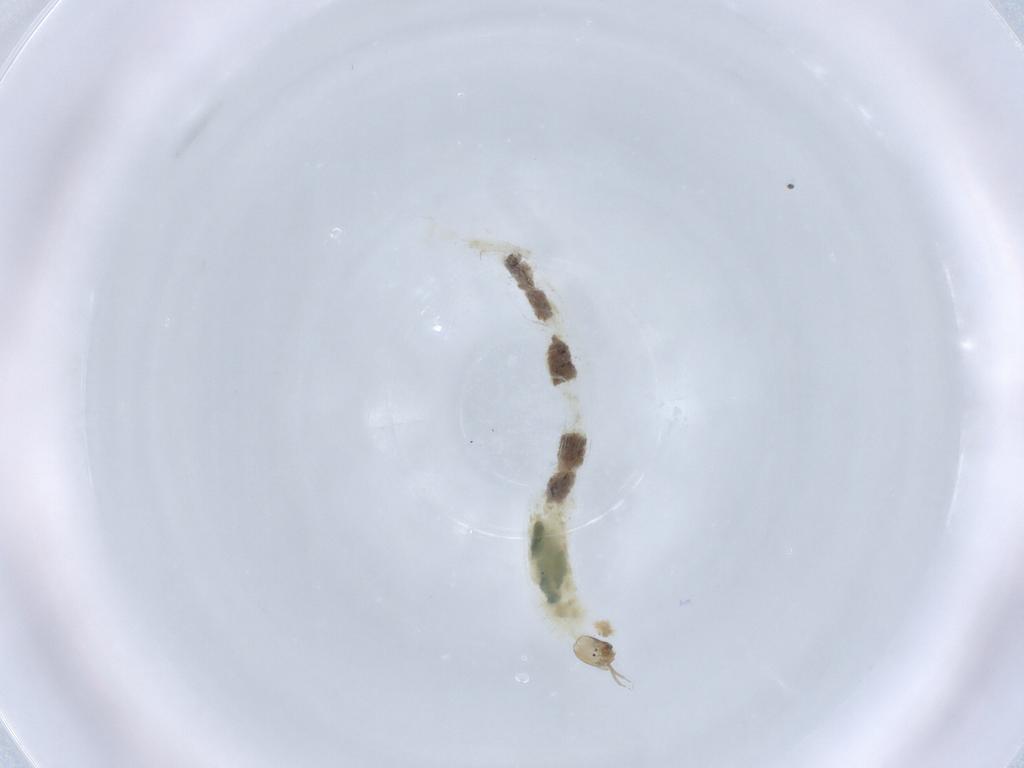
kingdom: Animalia
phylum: Arthropoda
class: Insecta
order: Diptera
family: Chironomidae
